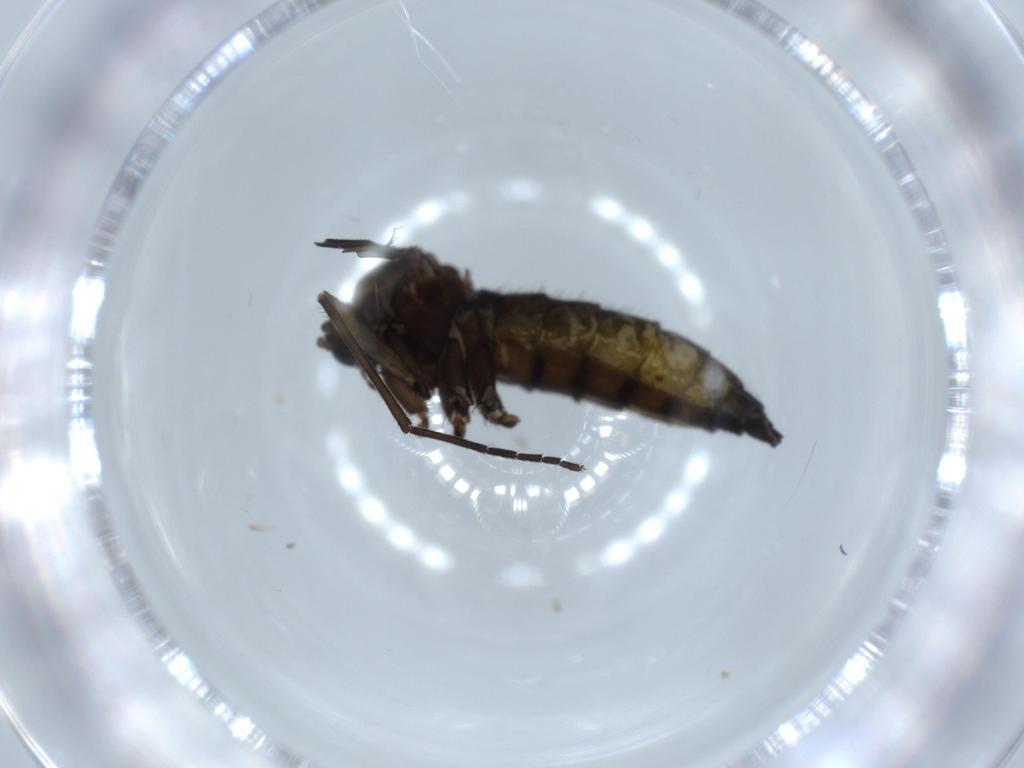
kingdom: Animalia
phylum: Arthropoda
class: Insecta
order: Diptera
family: Sciaridae
